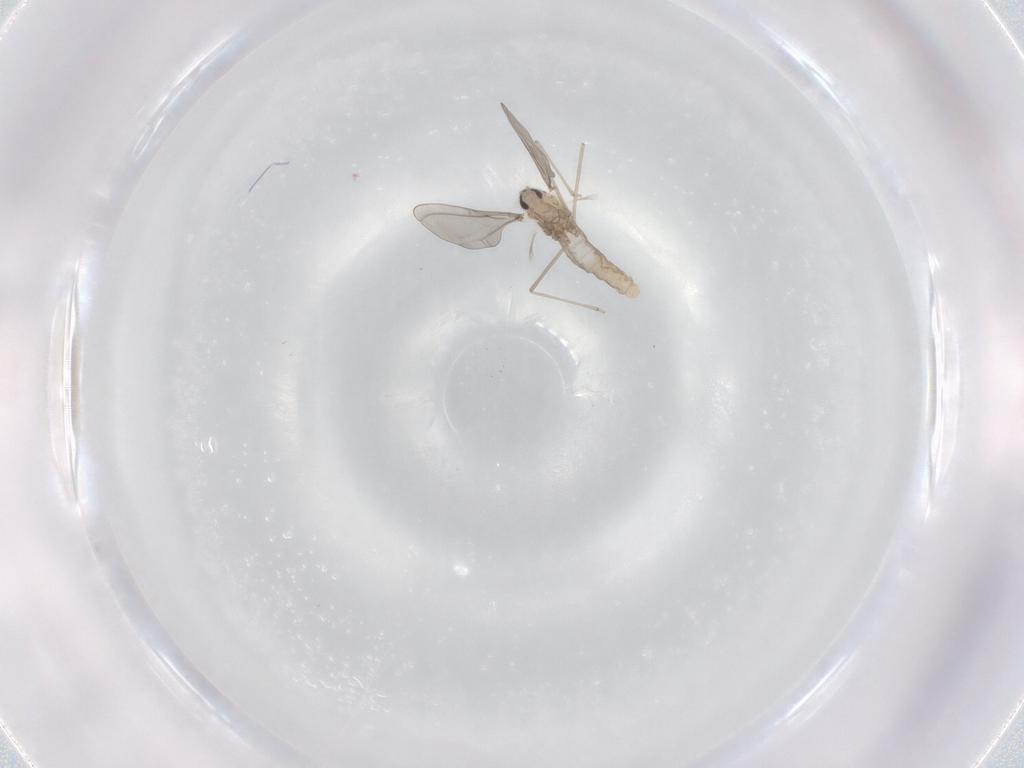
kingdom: Animalia
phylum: Arthropoda
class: Insecta
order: Diptera
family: Cecidomyiidae
